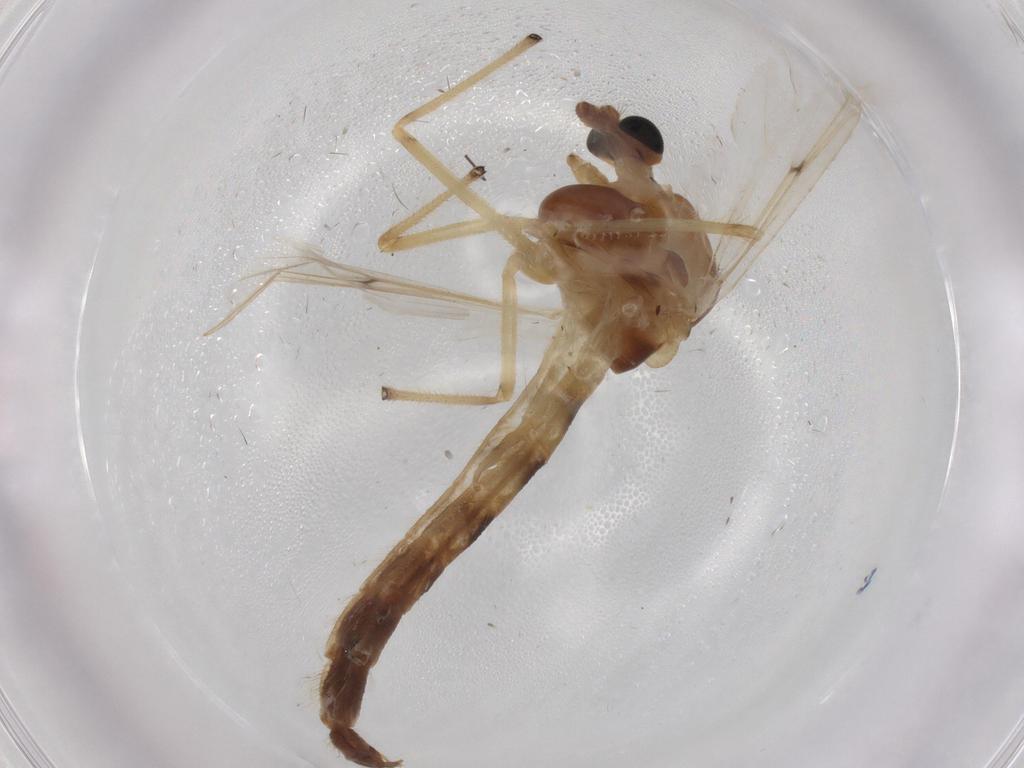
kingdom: Animalia
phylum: Arthropoda
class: Insecta
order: Diptera
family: Chironomidae
